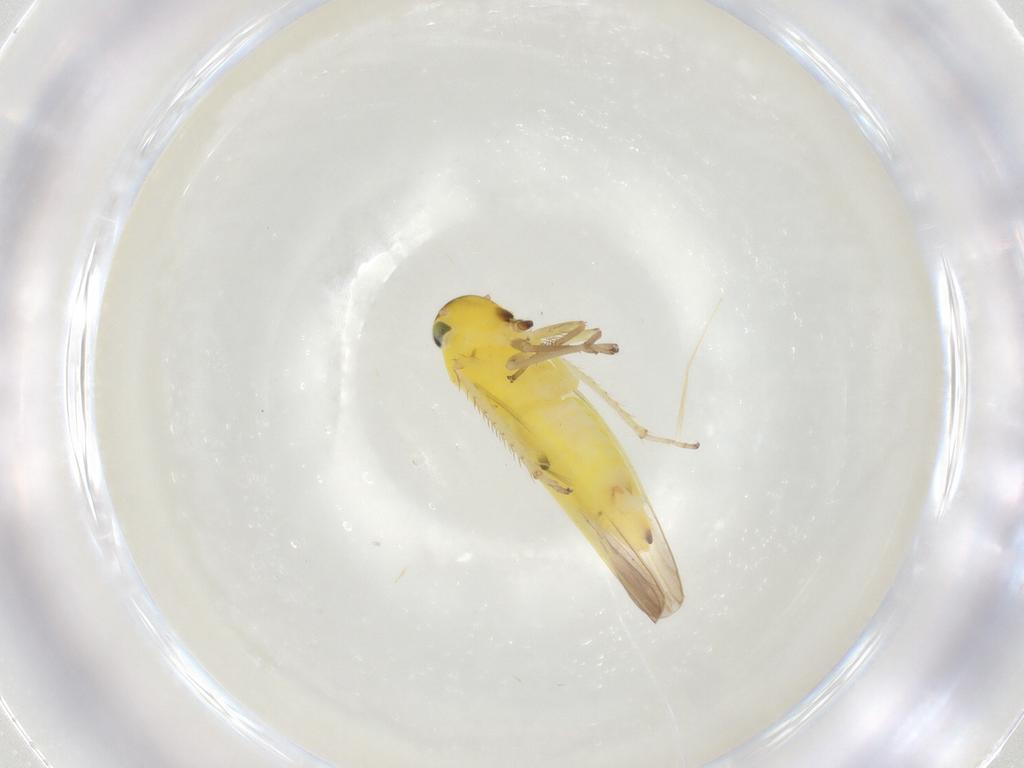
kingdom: Animalia
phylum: Arthropoda
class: Insecta
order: Hemiptera
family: Cicadellidae
